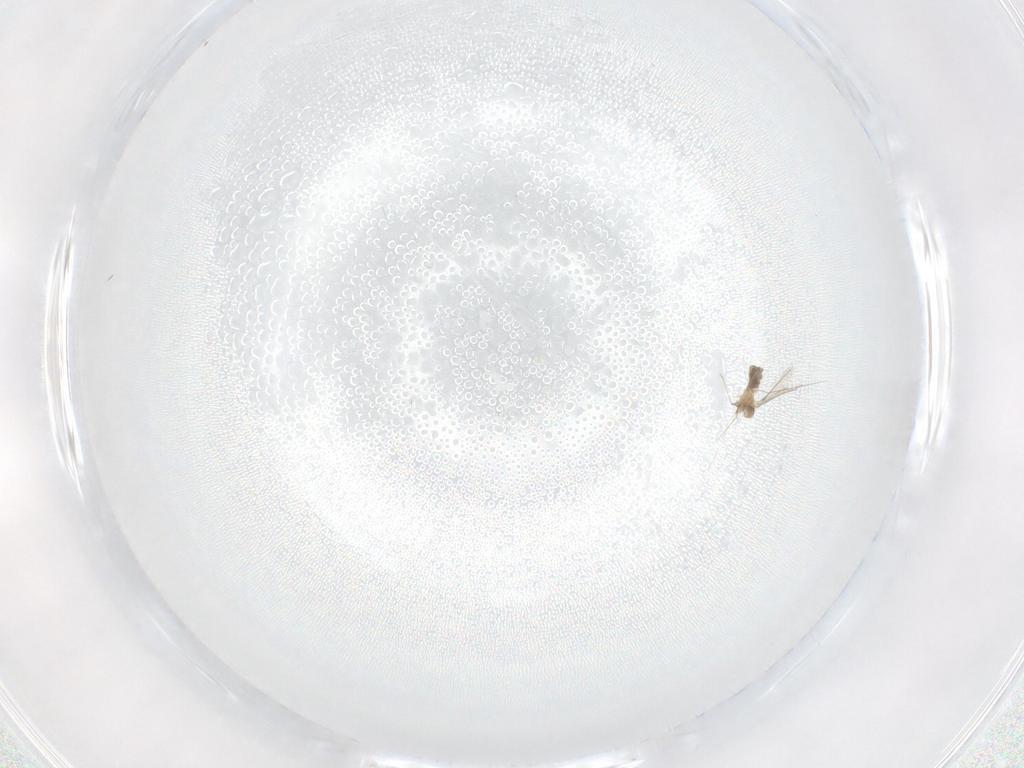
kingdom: Animalia
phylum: Arthropoda
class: Insecta
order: Diptera
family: Cecidomyiidae
